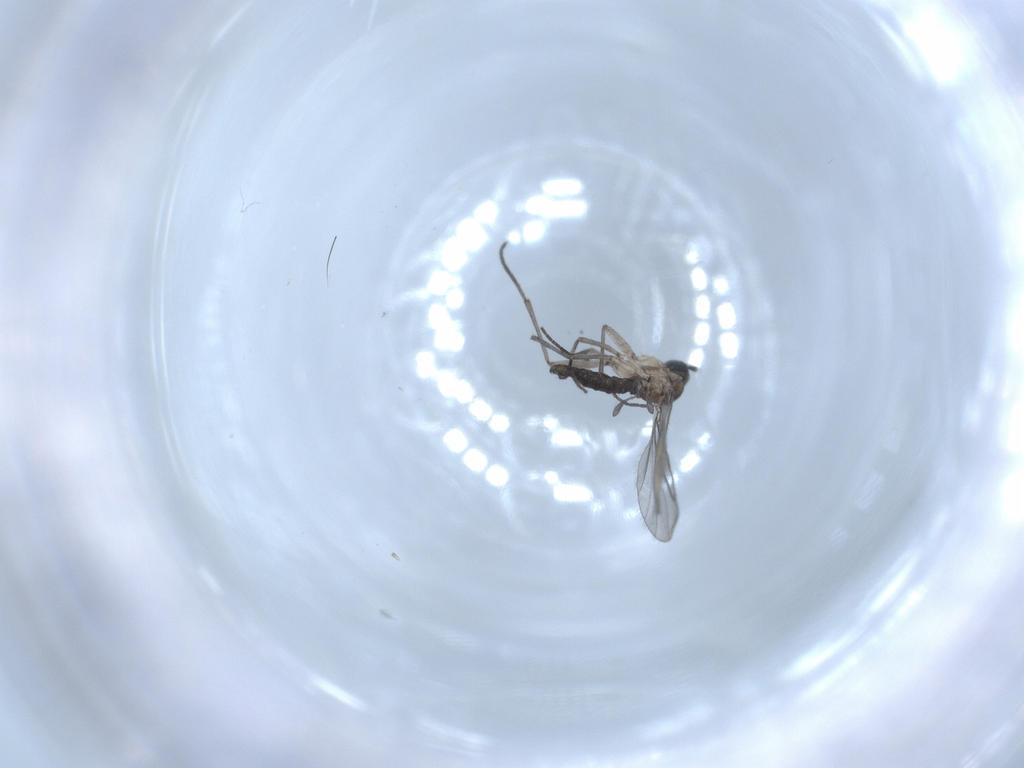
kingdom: Animalia
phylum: Arthropoda
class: Insecta
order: Diptera
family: Sciaridae
